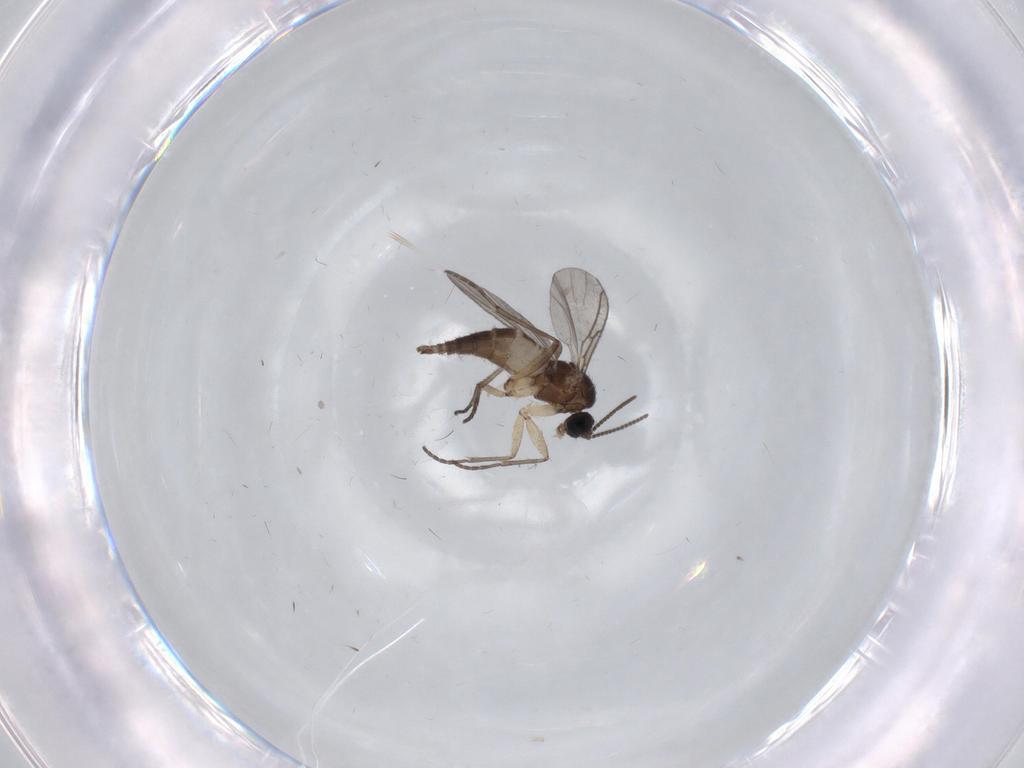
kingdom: Animalia
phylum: Arthropoda
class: Insecta
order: Diptera
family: Sciaridae
